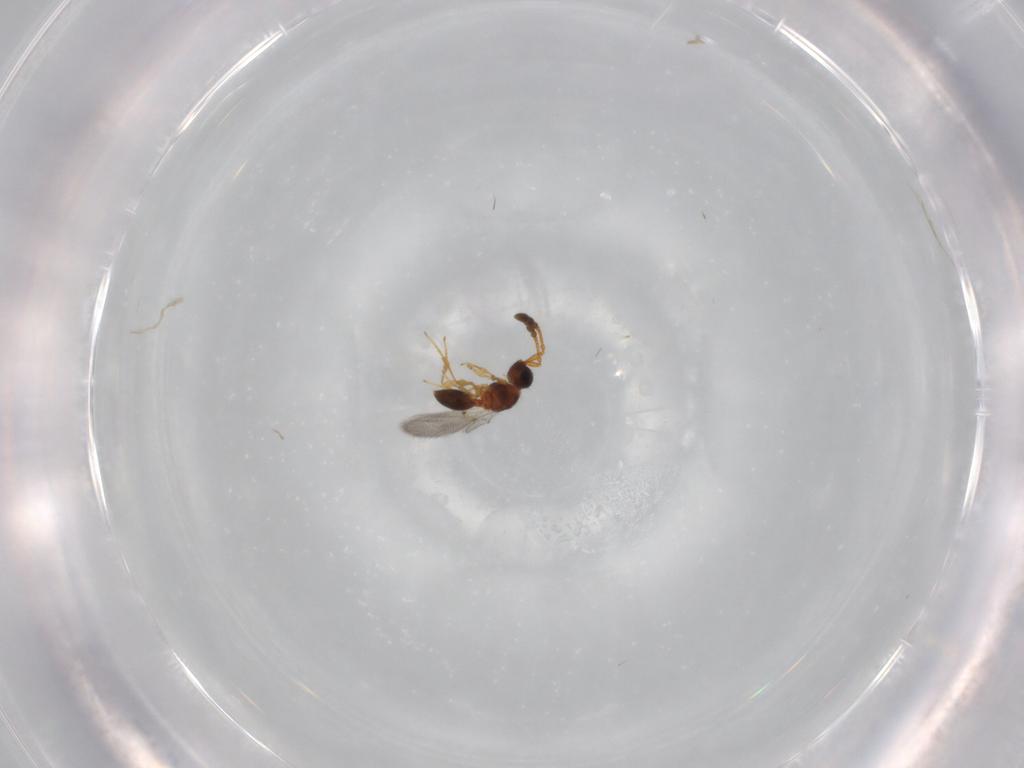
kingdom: Animalia
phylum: Arthropoda
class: Insecta
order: Hymenoptera
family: Diapriidae
